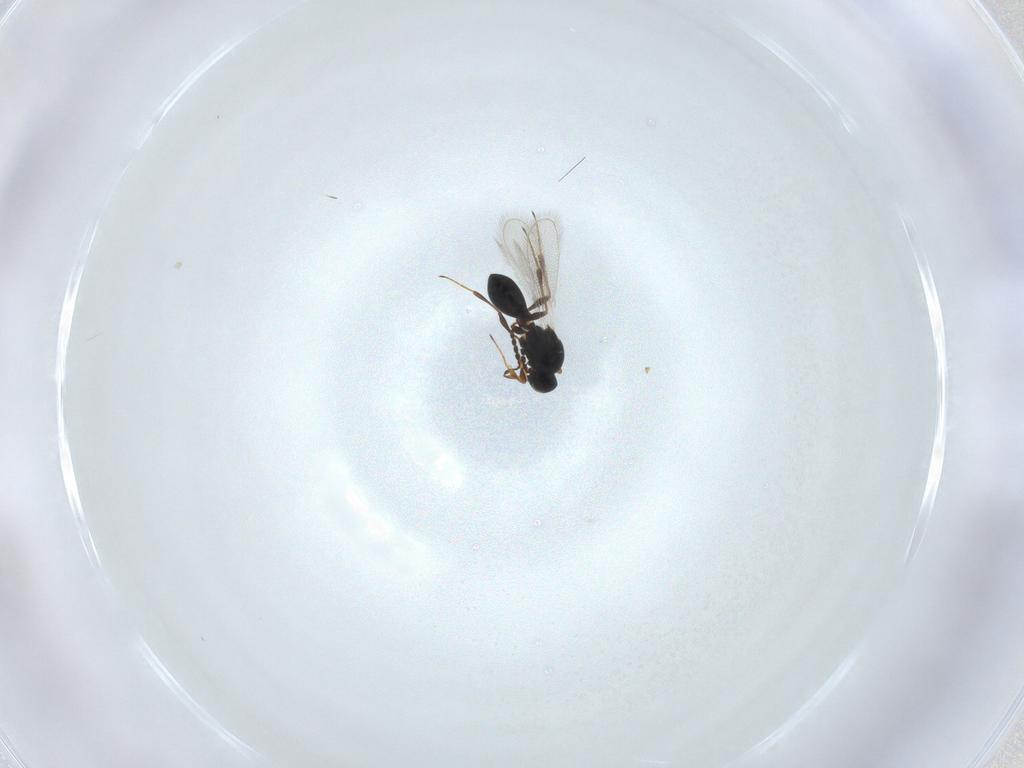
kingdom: Animalia
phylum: Arthropoda
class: Insecta
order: Hymenoptera
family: Platygastridae
